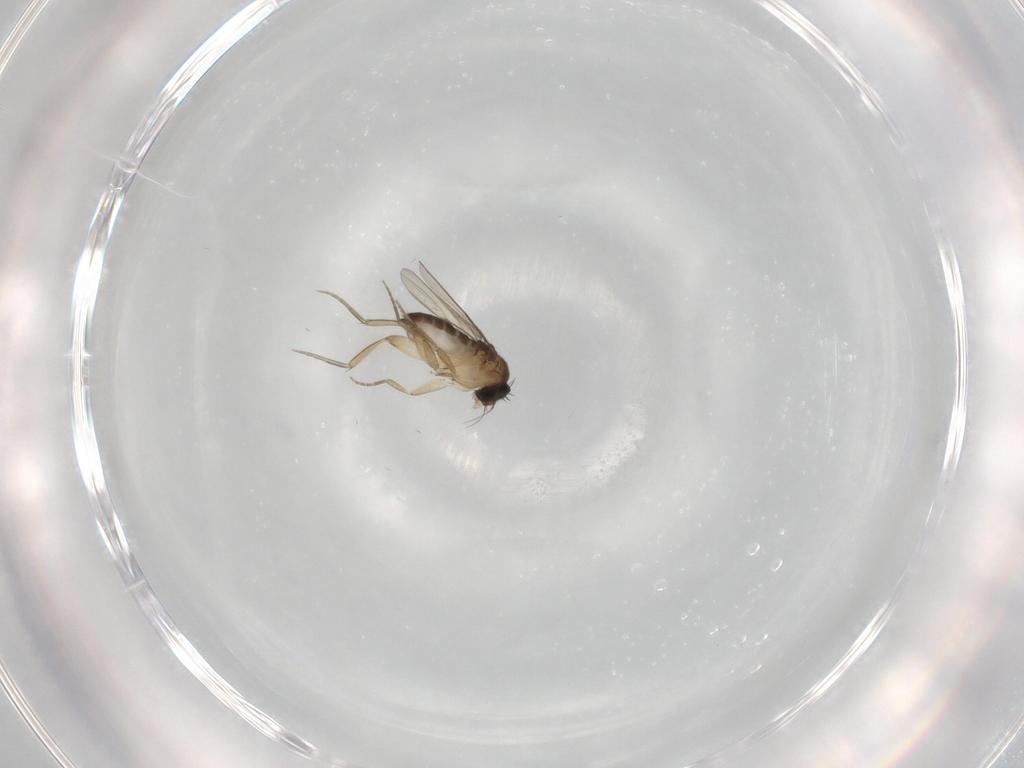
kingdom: Animalia
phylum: Arthropoda
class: Insecta
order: Diptera
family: Phoridae
